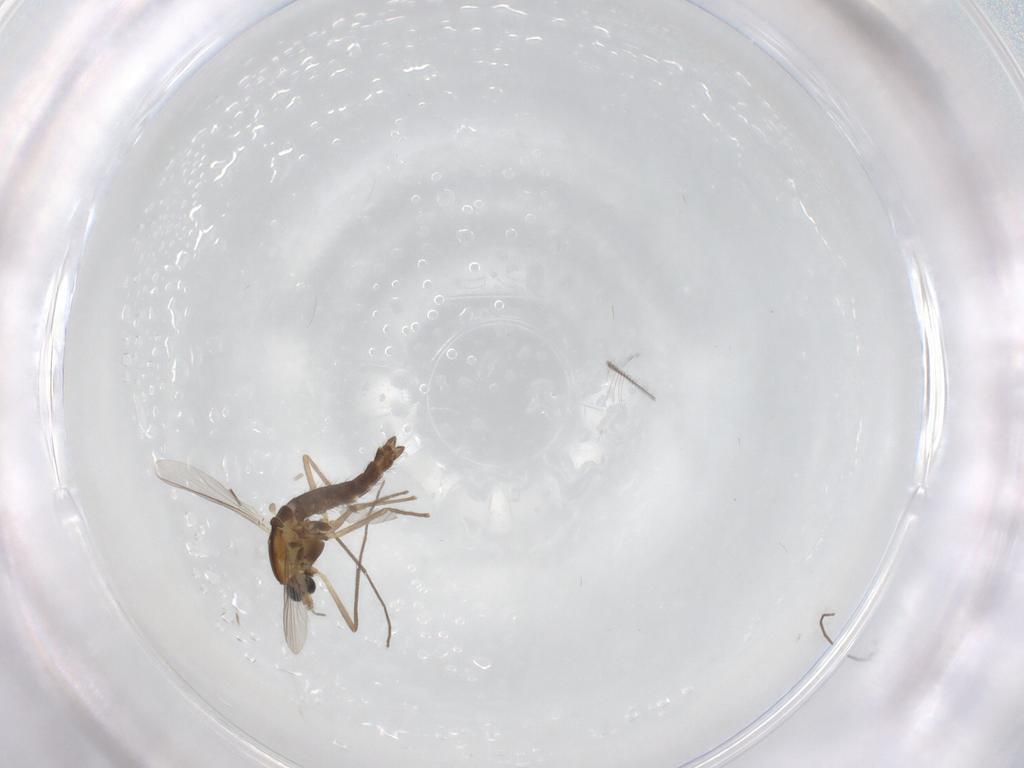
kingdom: Animalia
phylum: Arthropoda
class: Insecta
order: Diptera
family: Chironomidae
